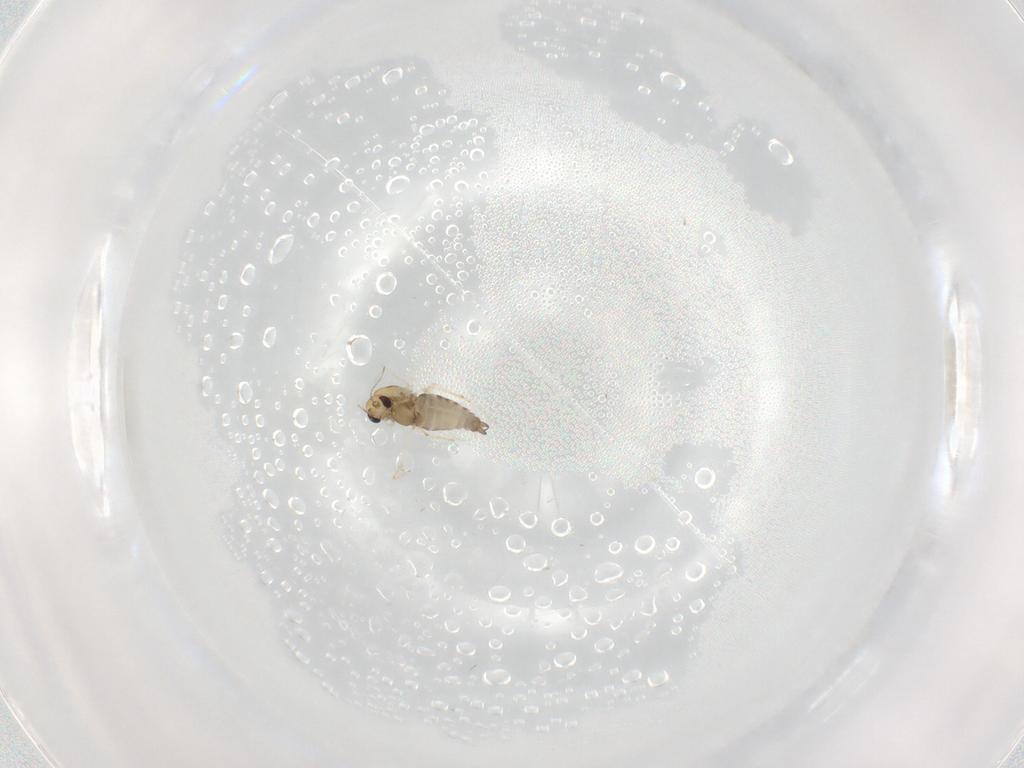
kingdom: Animalia
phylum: Arthropoda
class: Insecta
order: Diptera
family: Chironomidae
